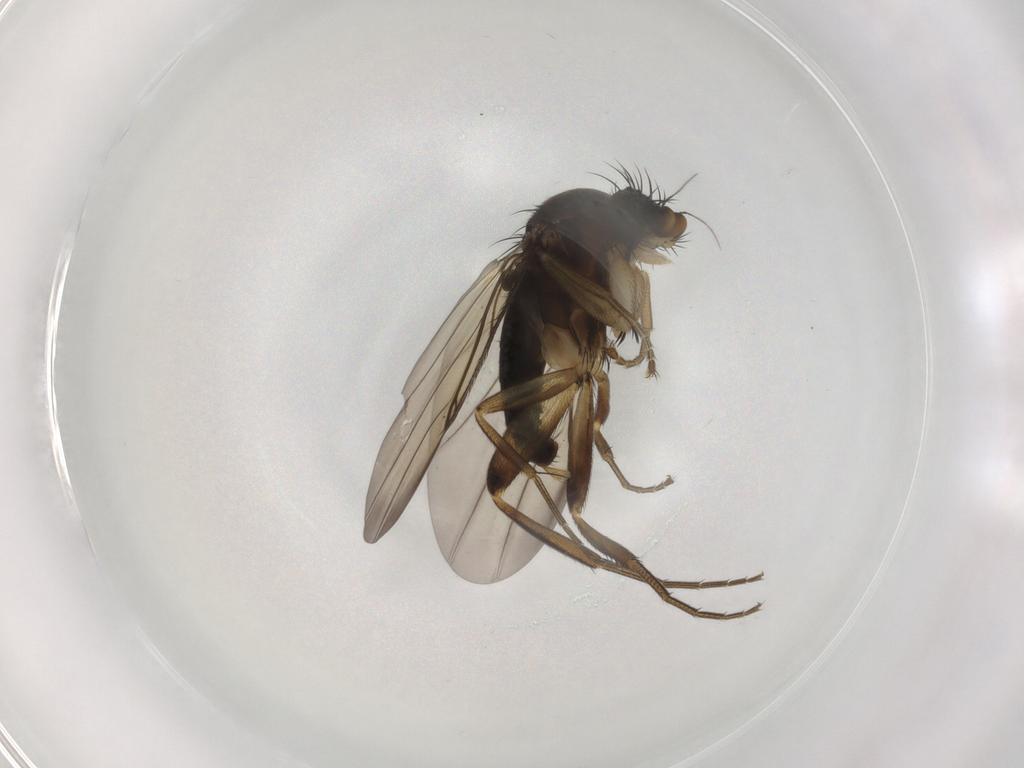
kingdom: Animalia
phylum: Arthropoda
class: Insecta
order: Diptera
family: Phoridae
